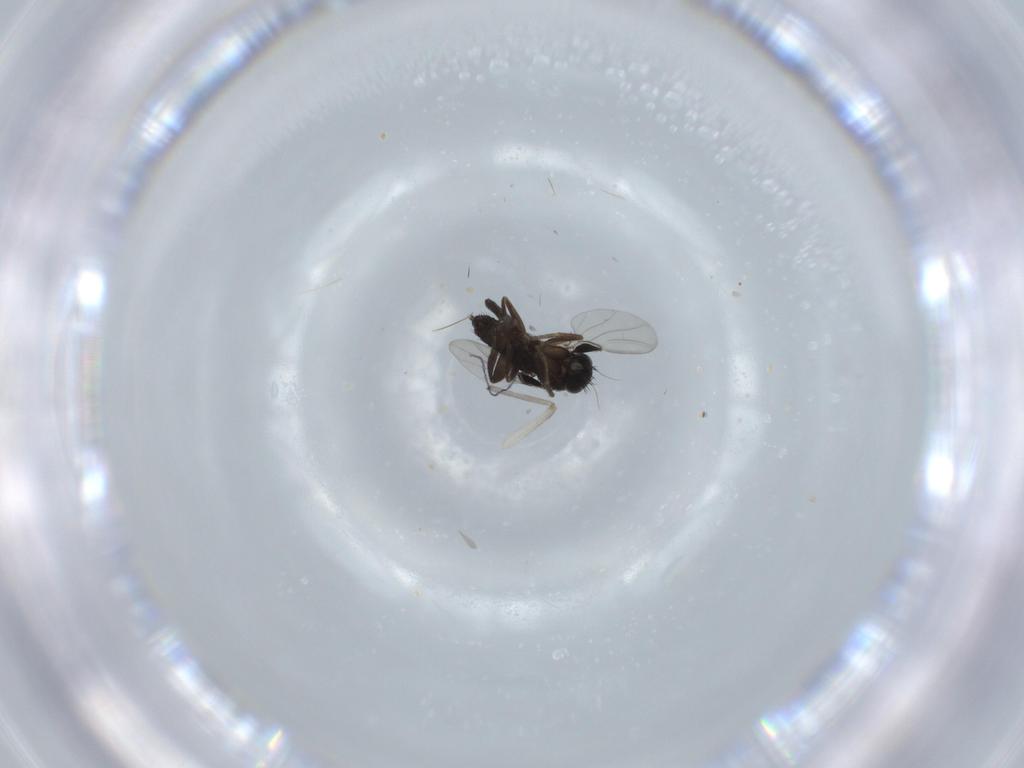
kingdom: Animalia
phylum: Arthropoda
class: Insecta
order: Diptera
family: Phoridae
